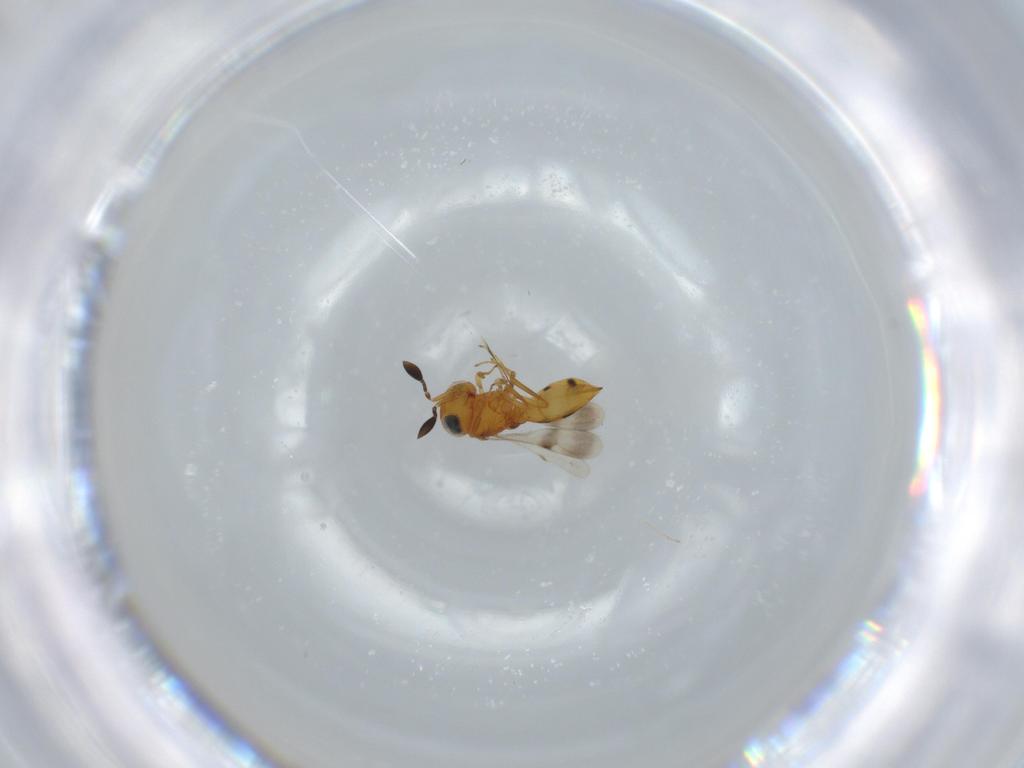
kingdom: Animalia
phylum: Arthropoda
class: Insecta
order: Hymenoptera
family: Scelionidae
